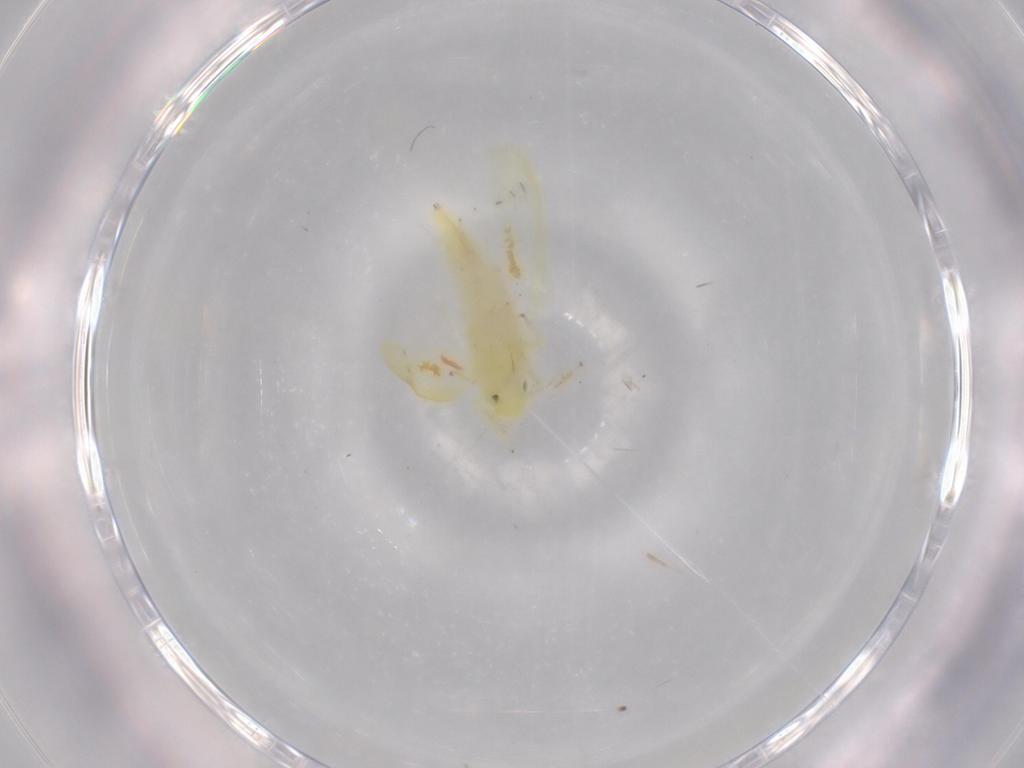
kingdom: Animalia
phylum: Arthropoda
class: Insecta
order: Hemiptera
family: Cicadellidae
